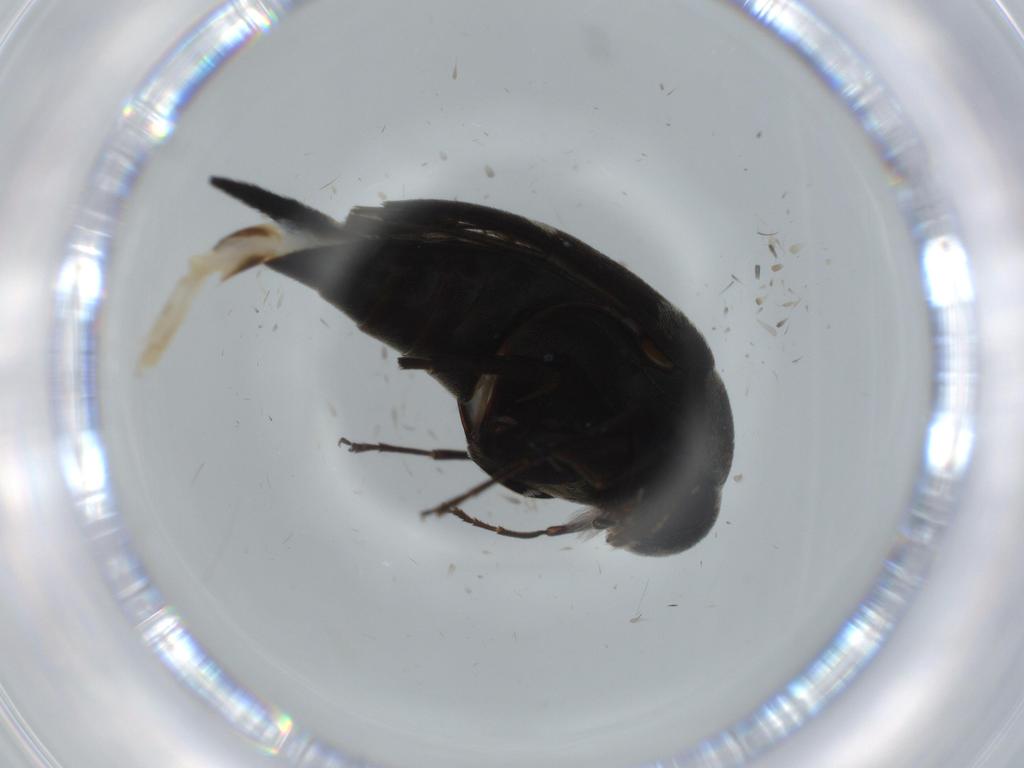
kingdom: Animalia
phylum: Arthropoda
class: Insecta
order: Coleoptera
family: Mordellidae
